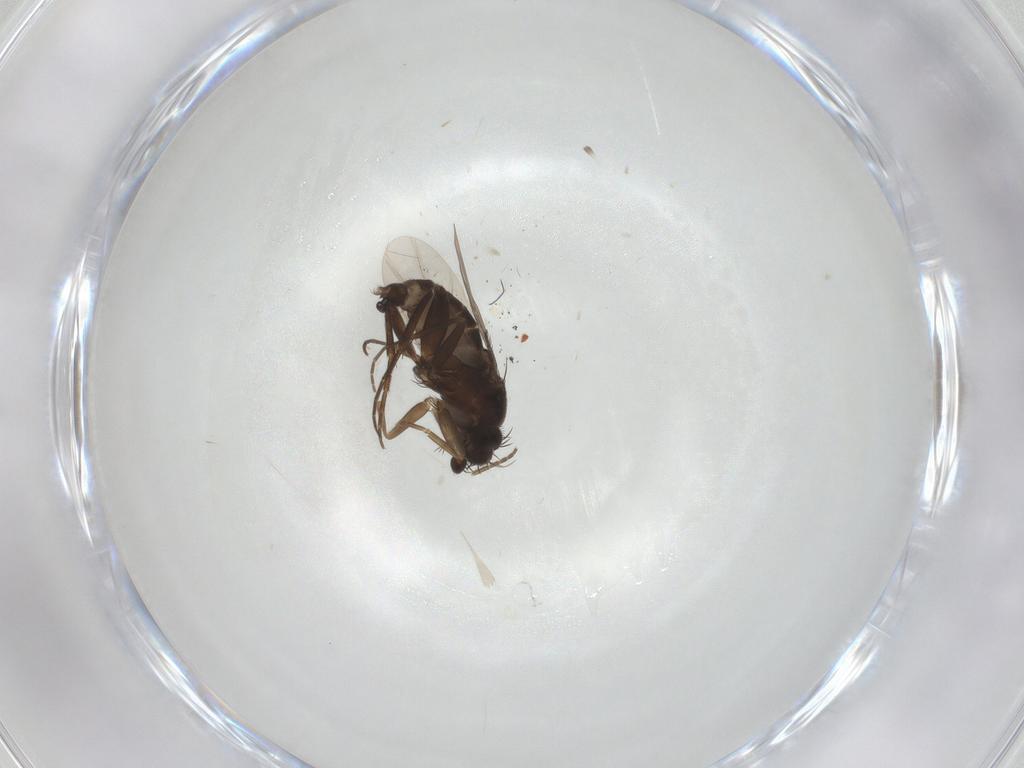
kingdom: Animalia
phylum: Arthropoda
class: Insecta
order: Diptera
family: Phoridae
